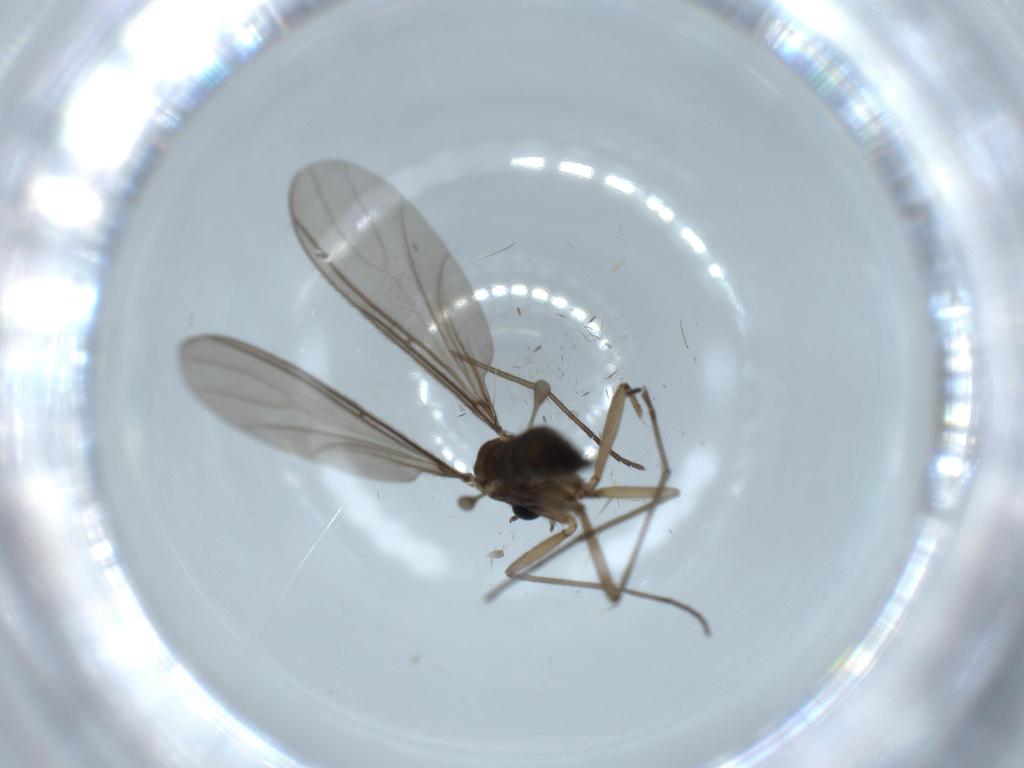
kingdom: Animalia
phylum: Arthropoda
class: Insecta
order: Diptera
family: Sciaridae
